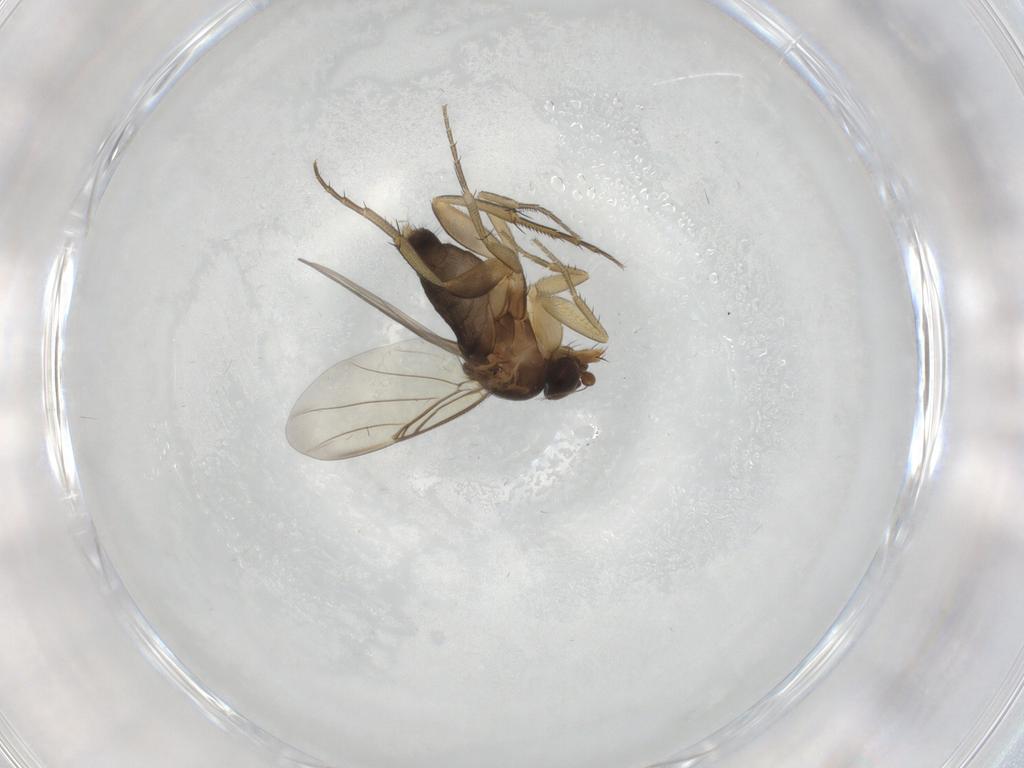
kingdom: Animalia
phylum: Arthropoda
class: Insecta
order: Diptera
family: Phoridae
